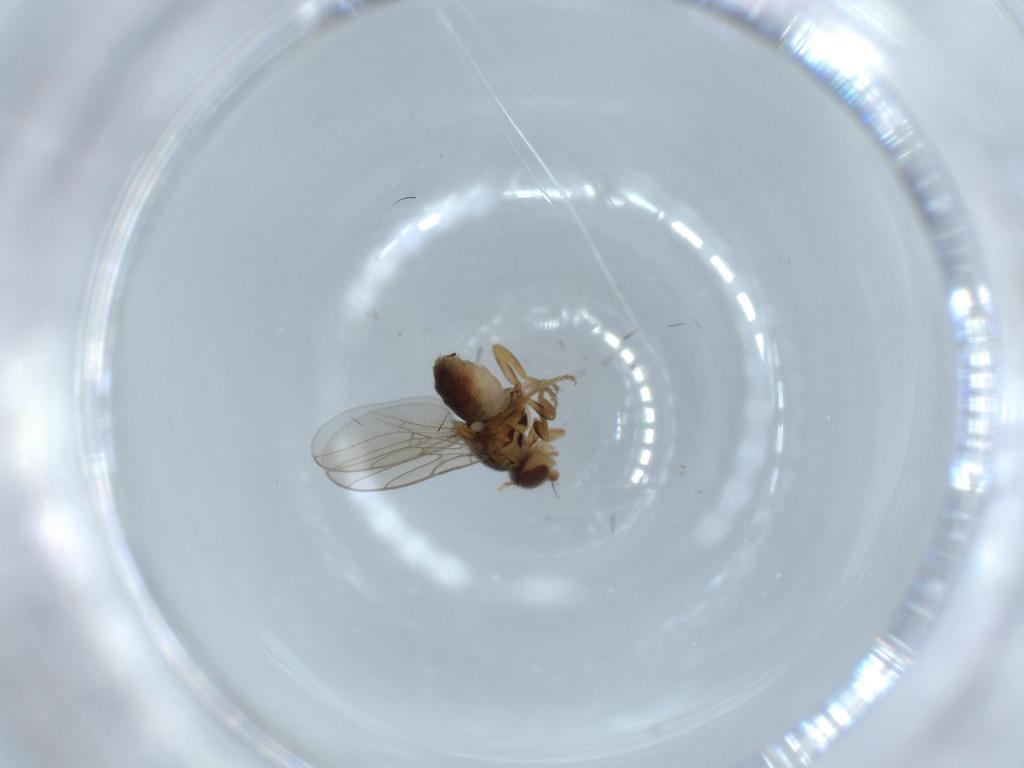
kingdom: Animalia
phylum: Arthropoda
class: Insecta
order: Diptera
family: Chloropidae
